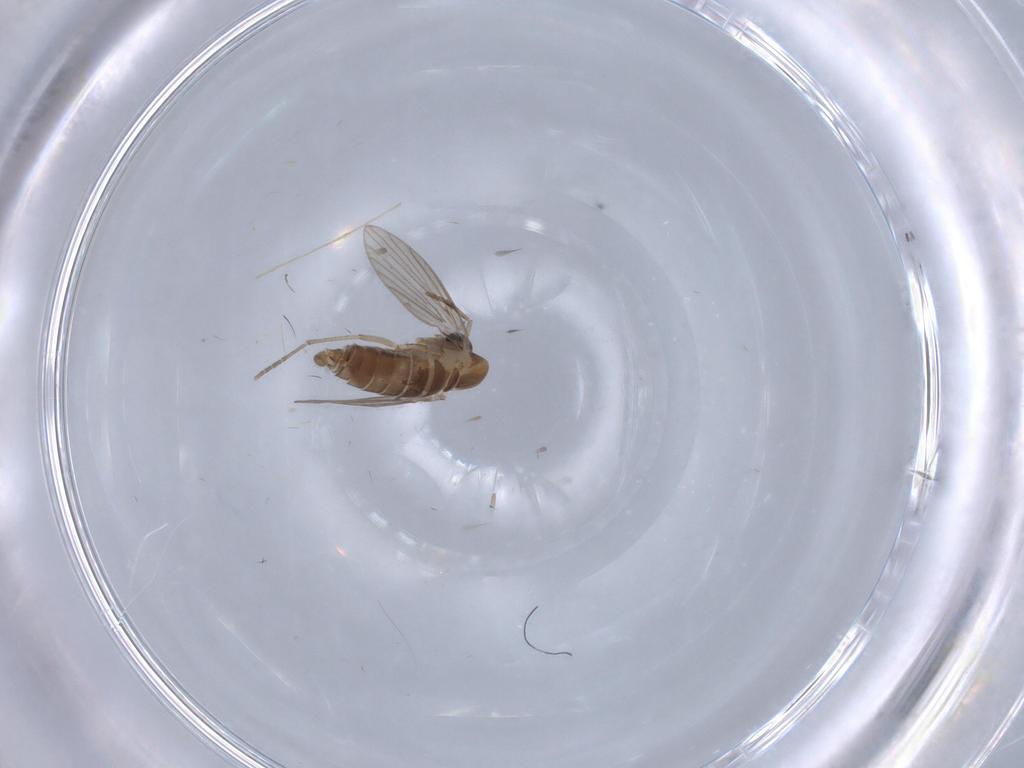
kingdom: Animalia
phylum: Arthropoda
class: Insecta
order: Diptera
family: Psychodidae
